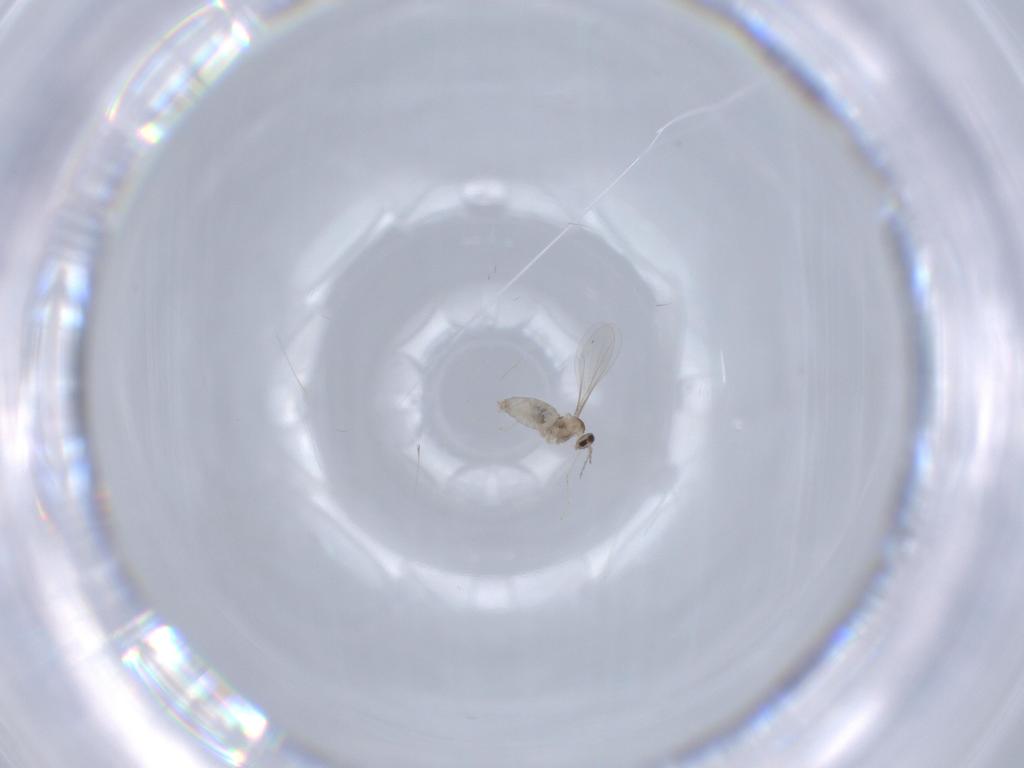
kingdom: Animalia
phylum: Arthropoda
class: Insecta
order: Diptera
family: Cecidomyiidae
